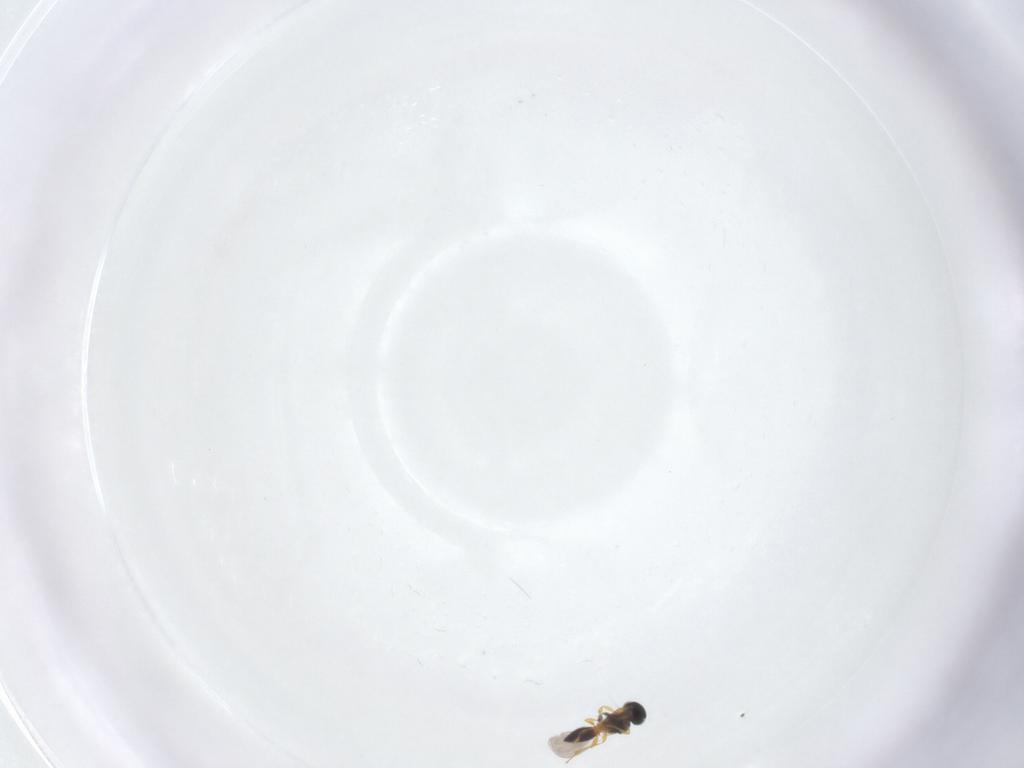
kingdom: Animalia
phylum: Arthropoda
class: Insecta
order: Hymenoptera
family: Platygastridae
